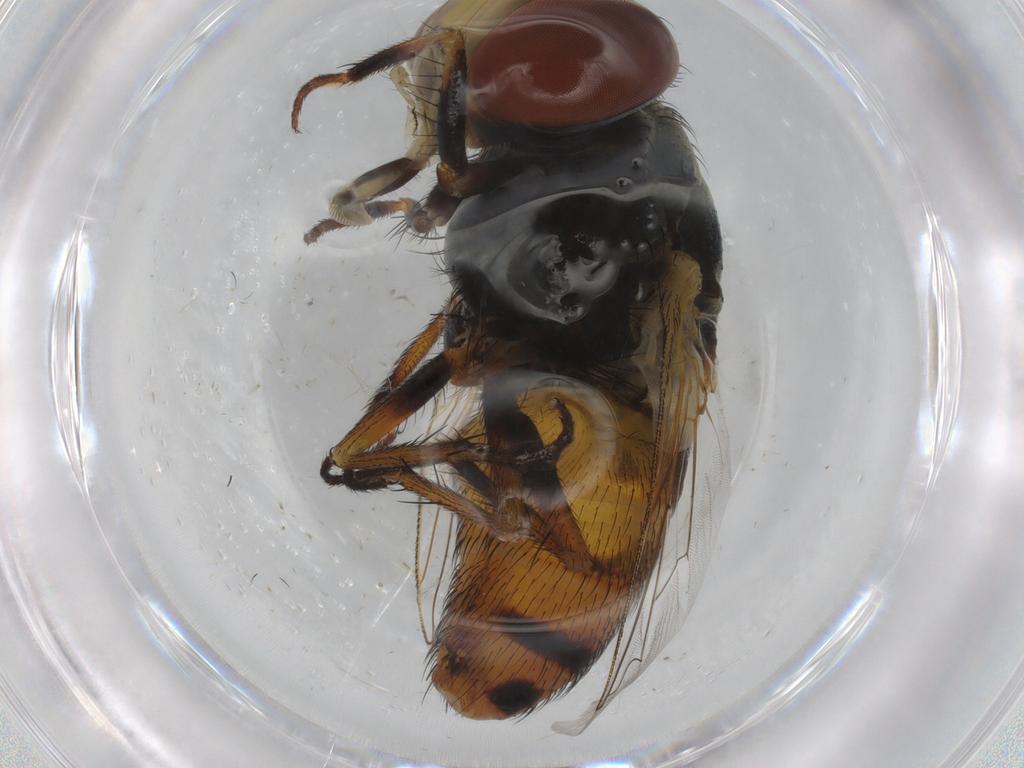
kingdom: Animalia
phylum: Arthropoda
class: Insecta
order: Diptera
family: Dolichopodidae
